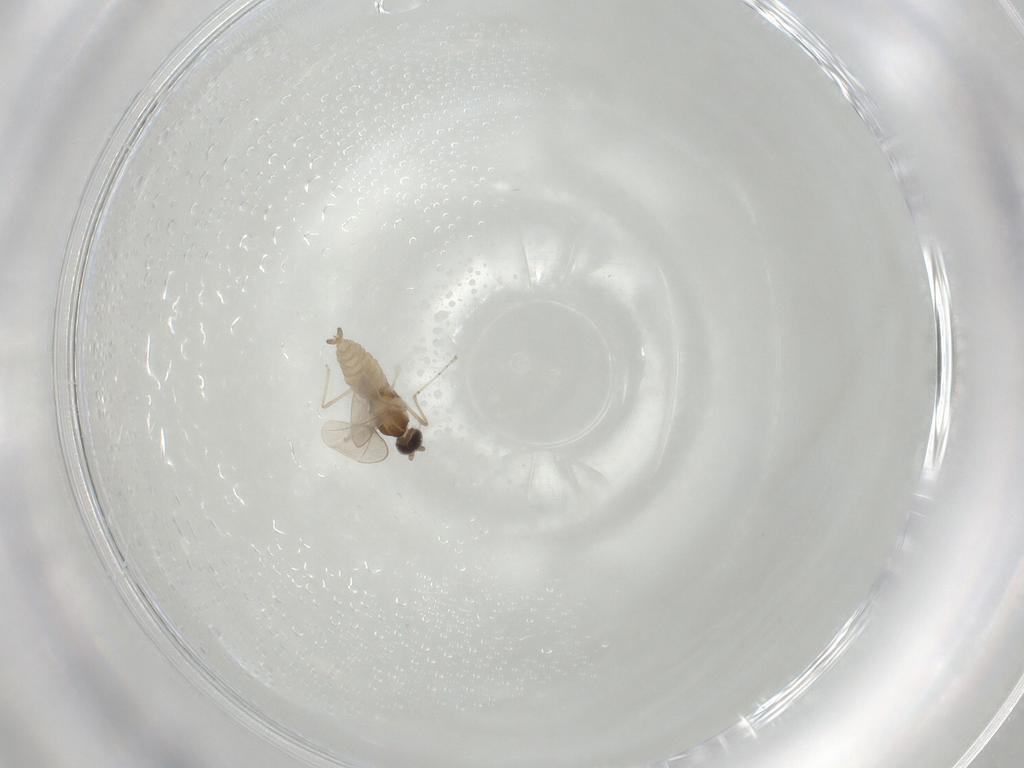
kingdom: Animalia
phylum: Arthropoda
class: Insecta
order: Diptera
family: Cecidomyiidae
